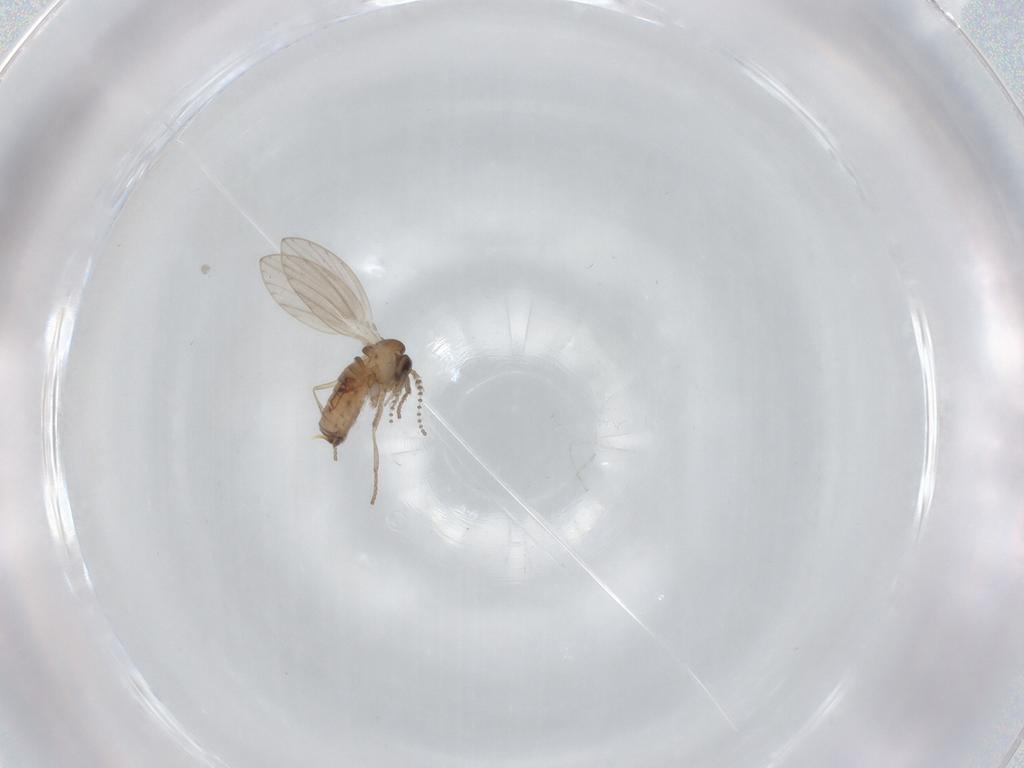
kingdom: Animalia
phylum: Arthropoda
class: Insecta
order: Diptera
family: Psychodidae
